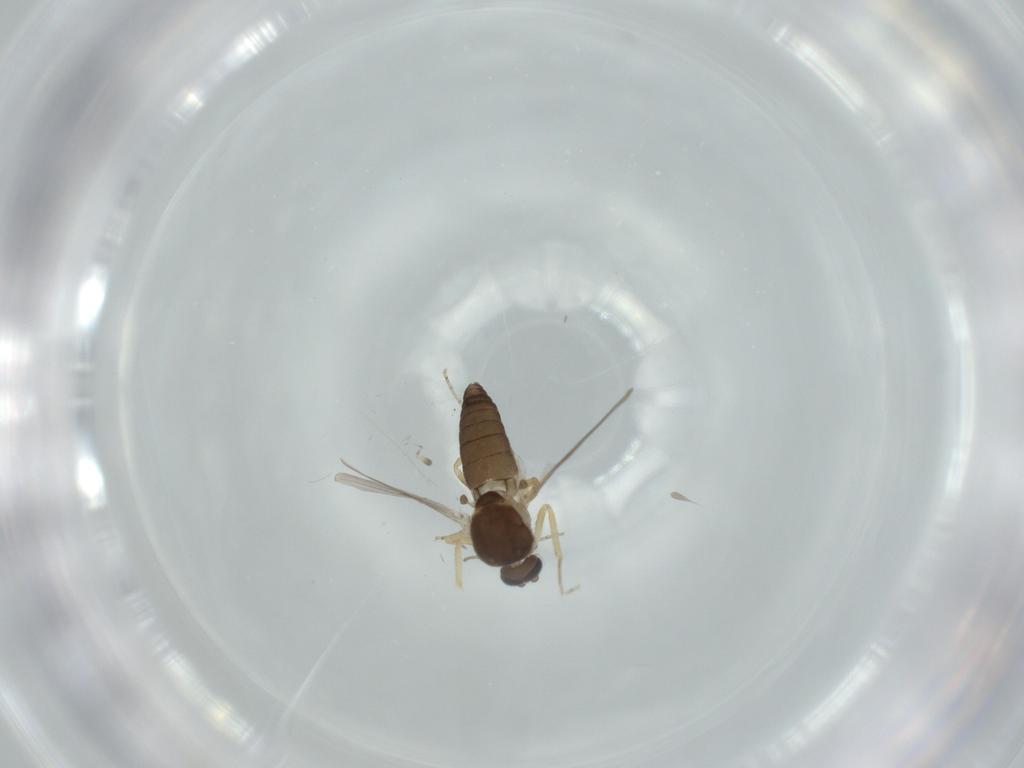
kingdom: Animalia
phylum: Arthropoda
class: Insecta
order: Diptera
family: Ceratopogonidae
